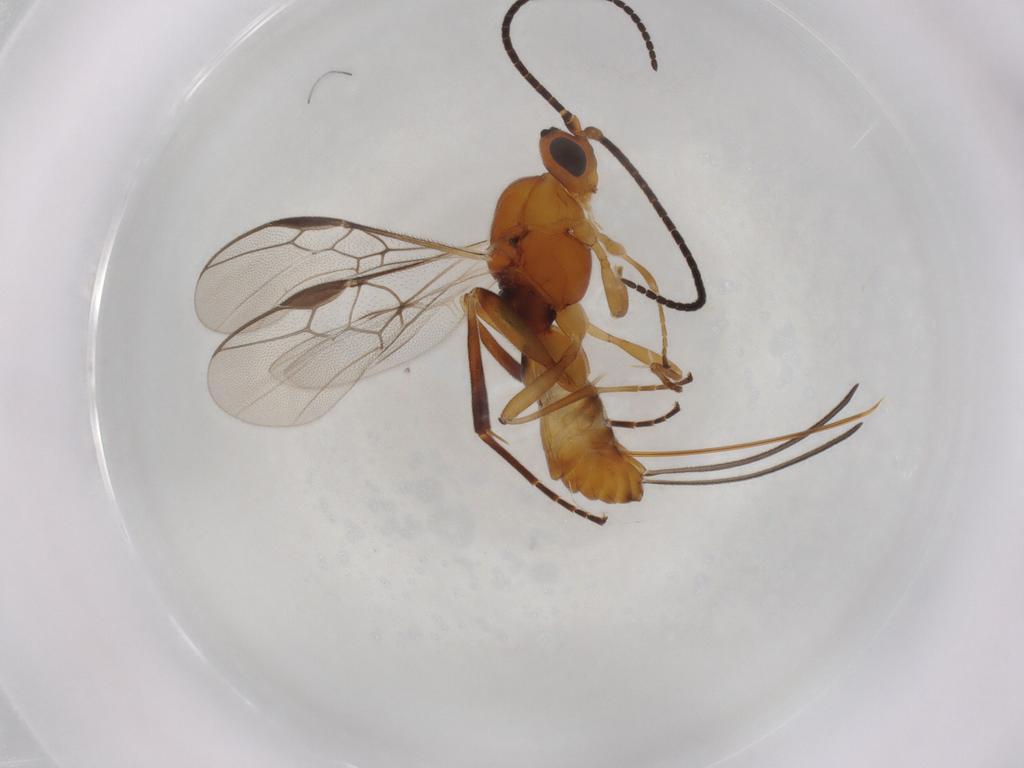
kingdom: Animalia
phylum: Arthropoda
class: Insecta
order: Hymenoptera
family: Braconidae
